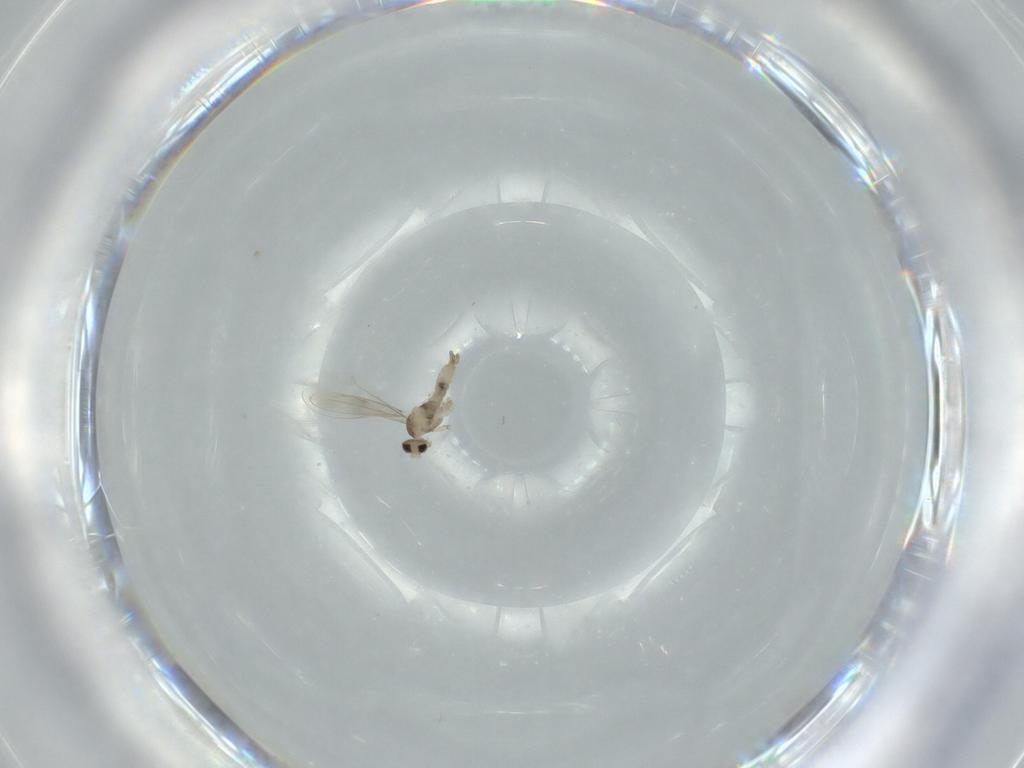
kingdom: Animalia
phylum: Arthropoda
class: Insecta
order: Diptera
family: Cecidomyiidae
